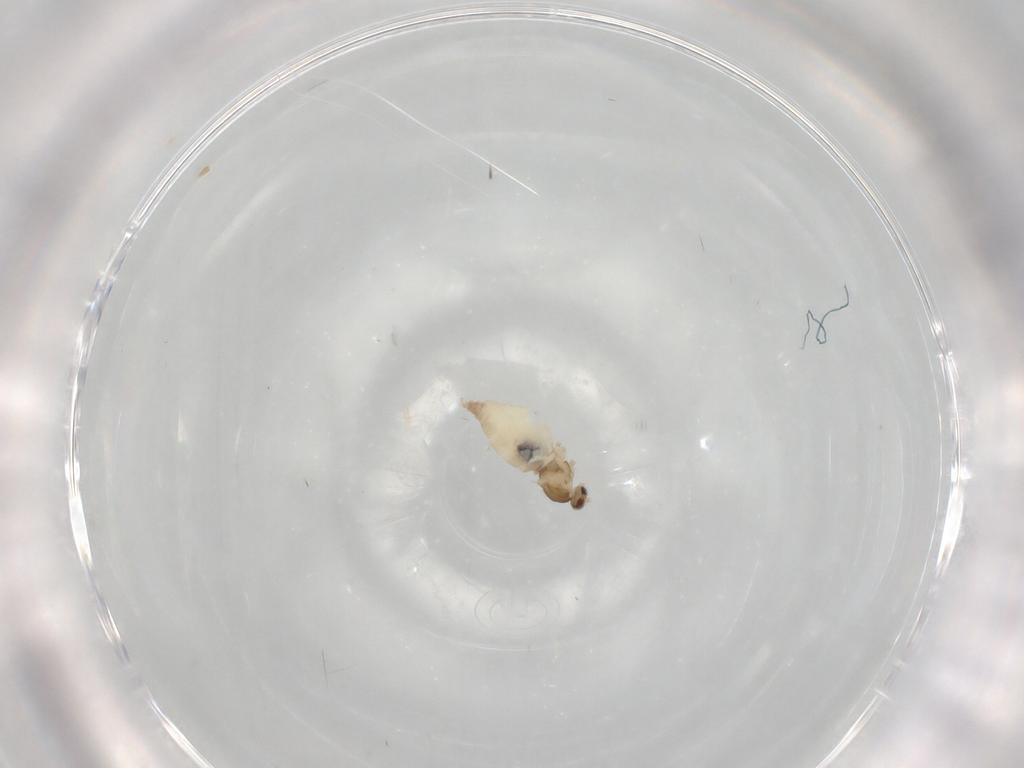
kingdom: Animalia
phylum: Arthropoda
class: Insecta
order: Diptera
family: Cecidomyiidae
